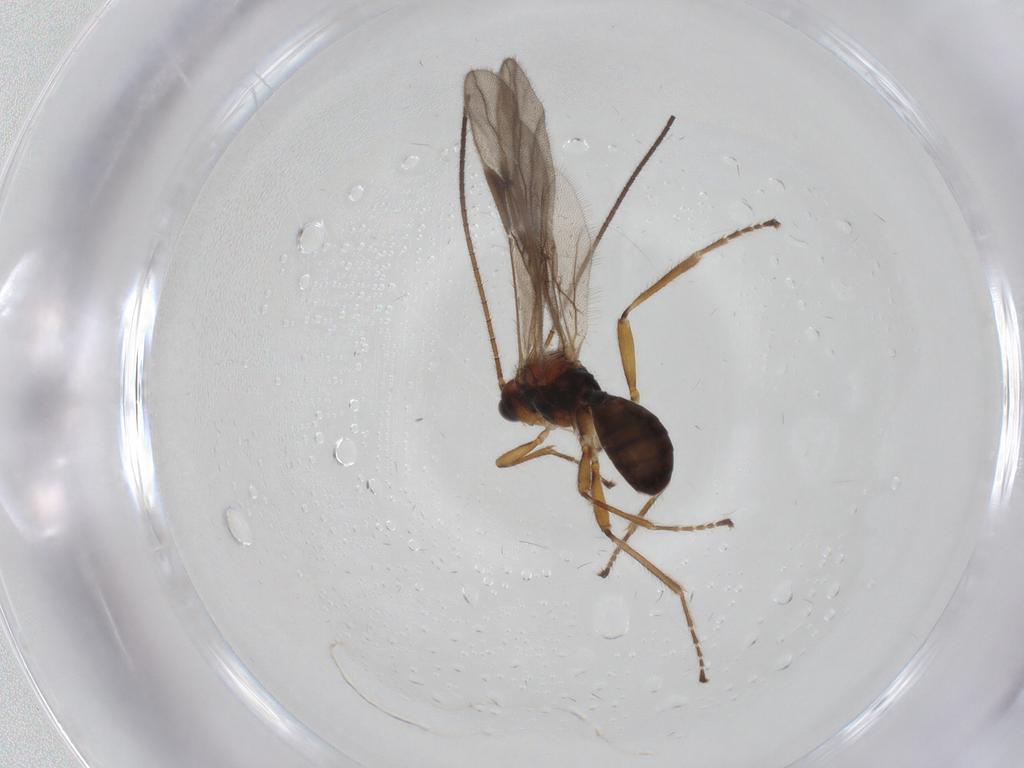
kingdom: Animalia
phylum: Arthropoda
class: Insecta
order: Hymenoptera
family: Braconidae
